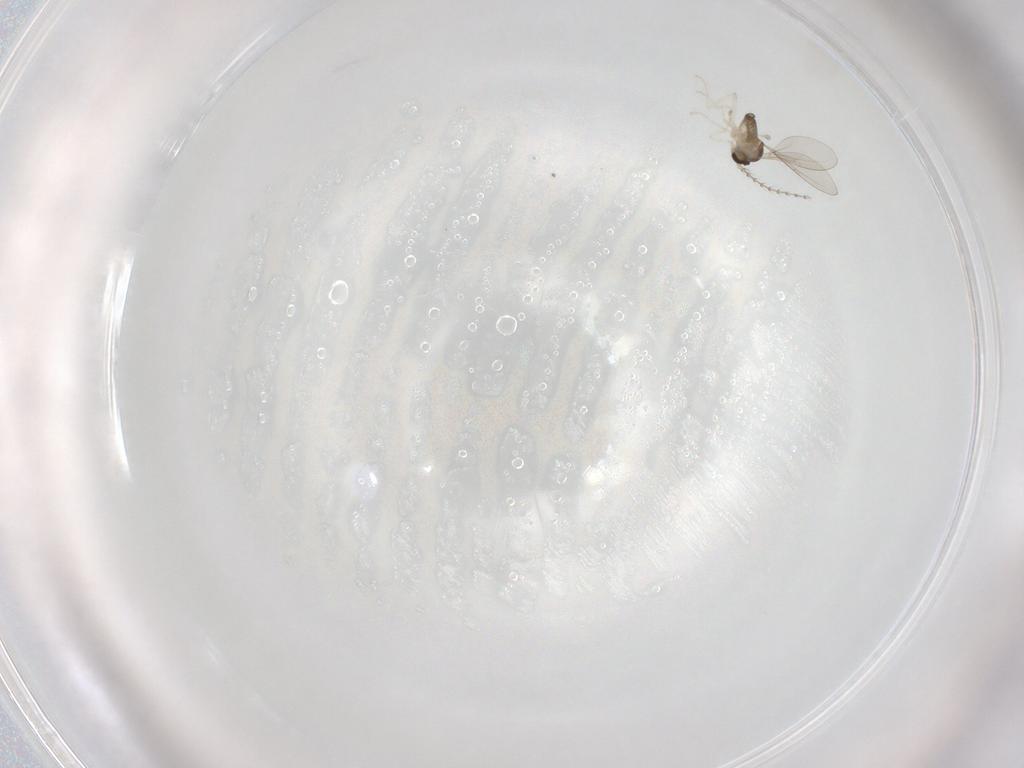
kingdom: Animalia
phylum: Arthropoda
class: Insecta
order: Diptera
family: Cecidomyiidae
